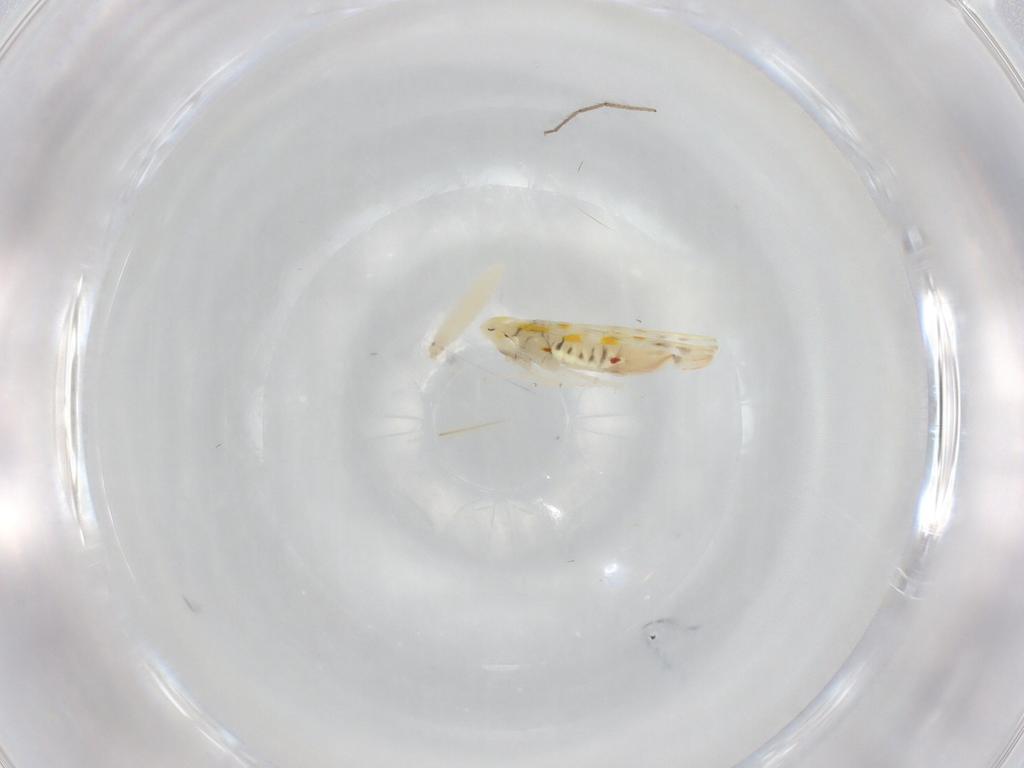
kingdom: Animalia
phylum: Arthropoda
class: Insecta
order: Hemiptera
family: Cicadellidae
